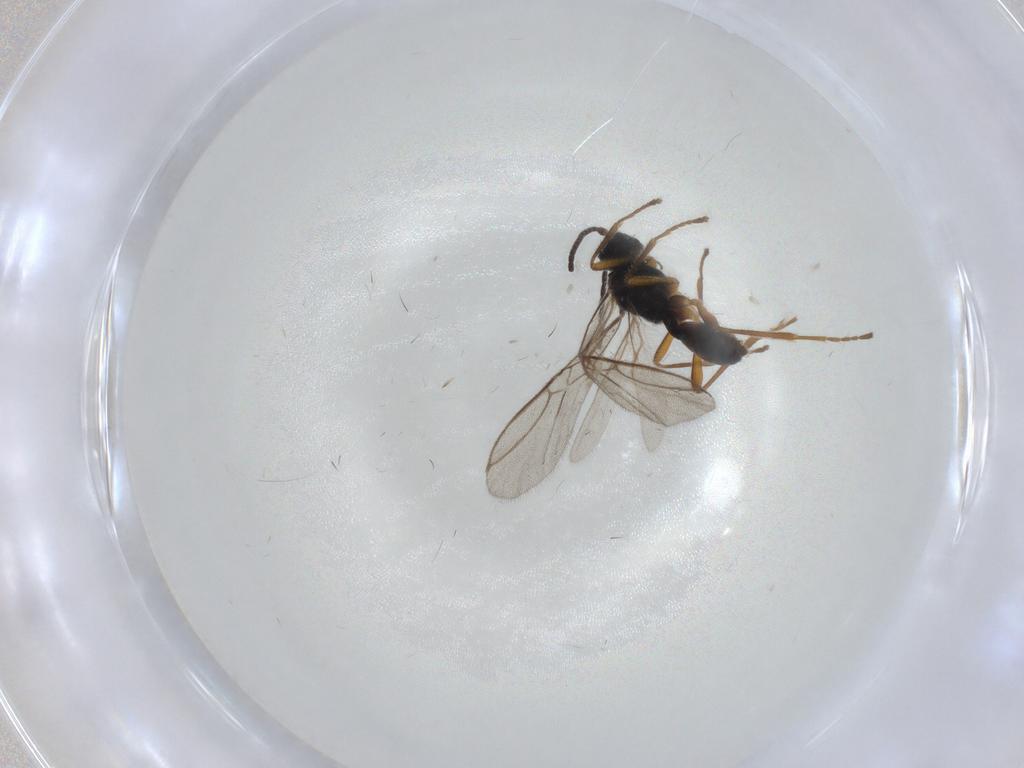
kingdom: Animalia
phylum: Arthropoda
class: Insecta
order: Hymenoptera
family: Braconidae
